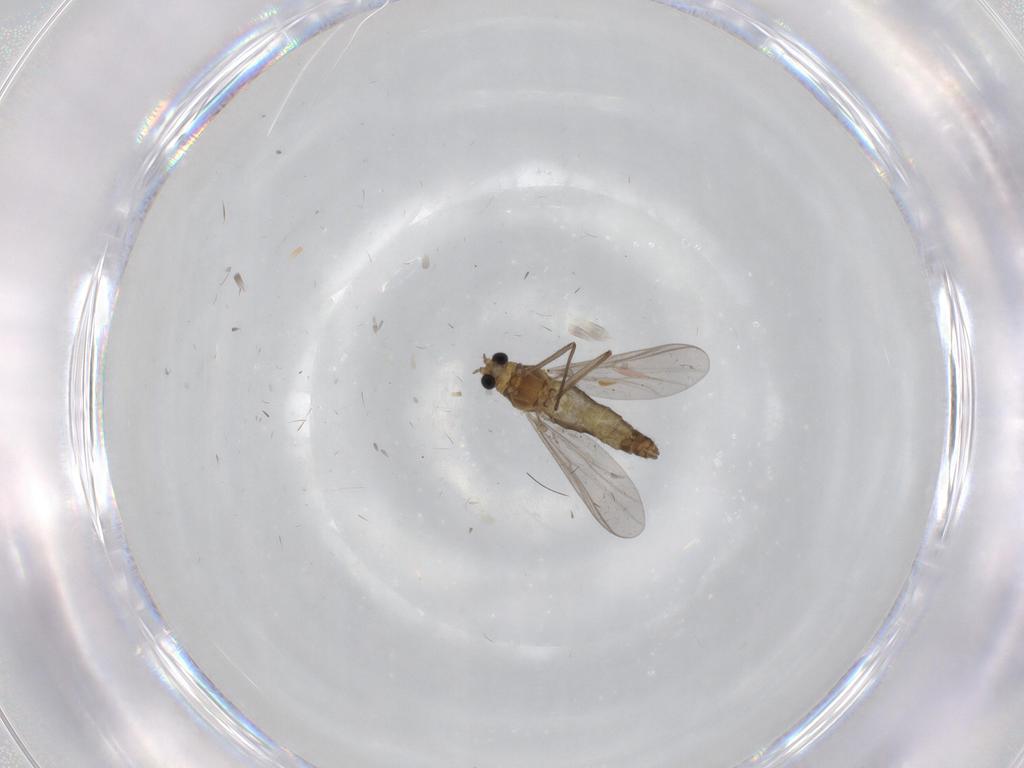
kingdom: Animalia
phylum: Arthropoda
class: Insecta
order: Diptera
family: Chironomidae
